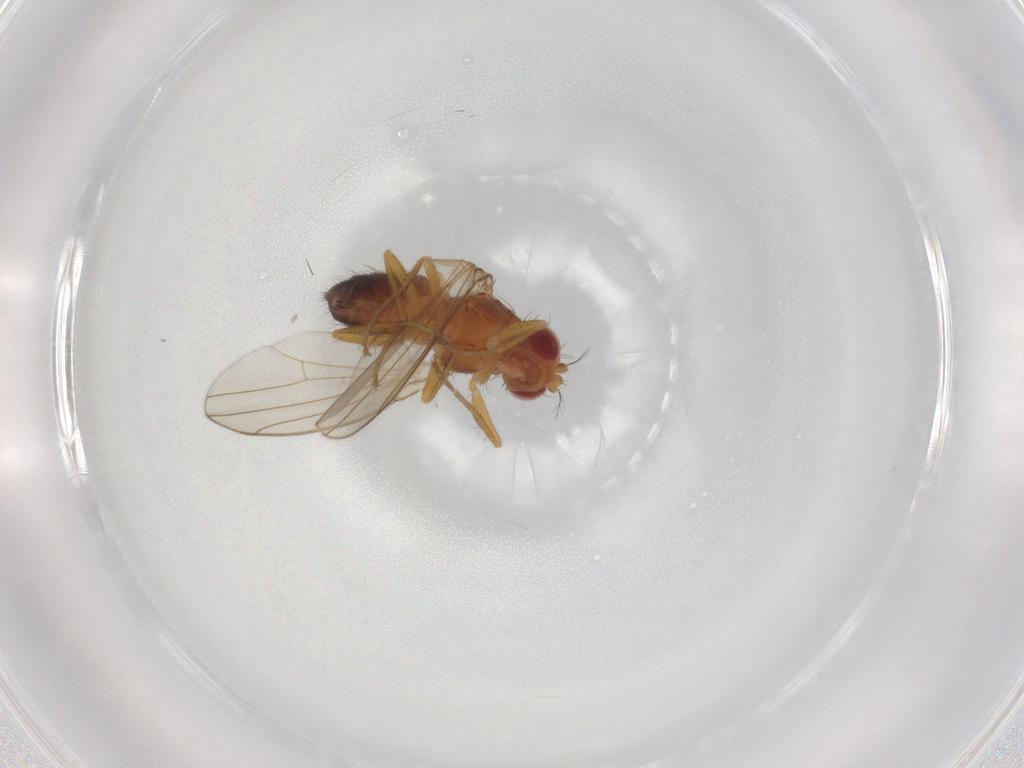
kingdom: Animalia
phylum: Arthropoda
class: Insecta
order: Diptera
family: Drosophilidae
